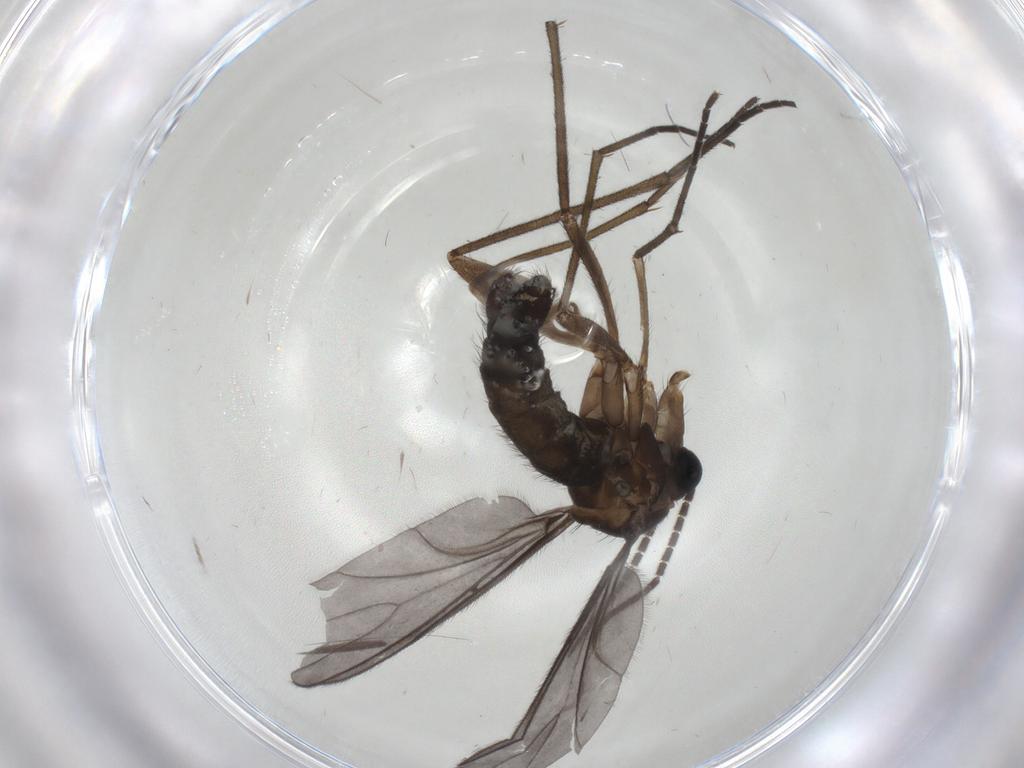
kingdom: Animalia
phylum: Arthropoda
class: Insecta
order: Diptera
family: Sciaridae
